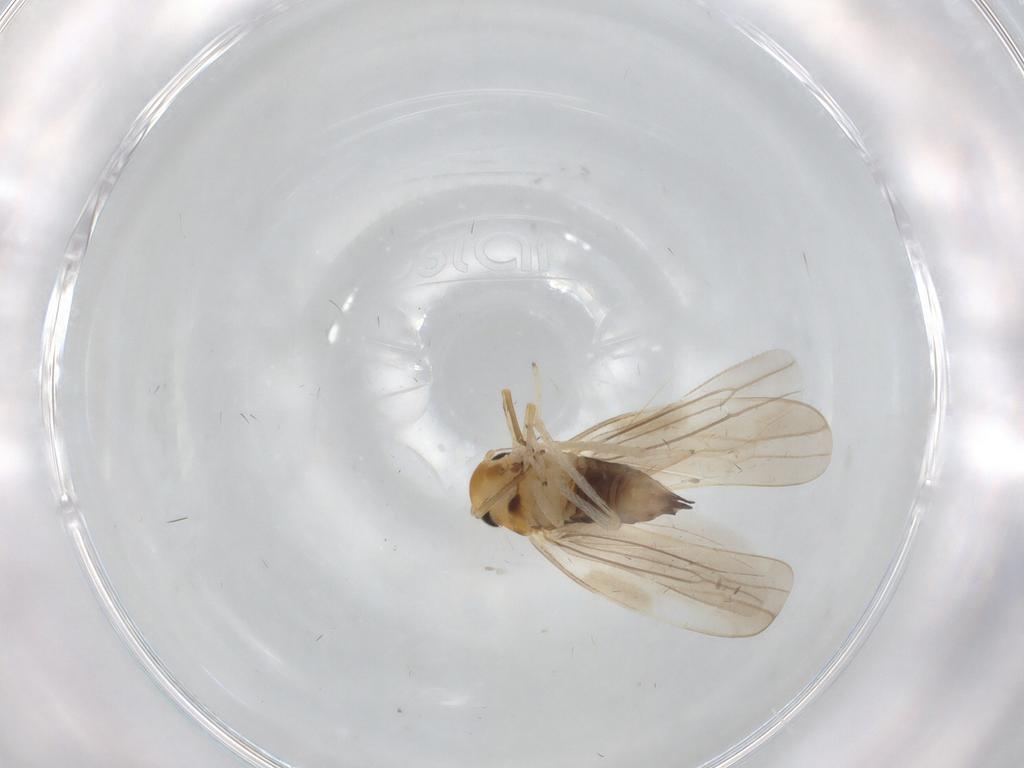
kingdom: Animalia
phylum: Arthropoda
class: Insecta
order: Hemiptera
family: Cicadellidae
